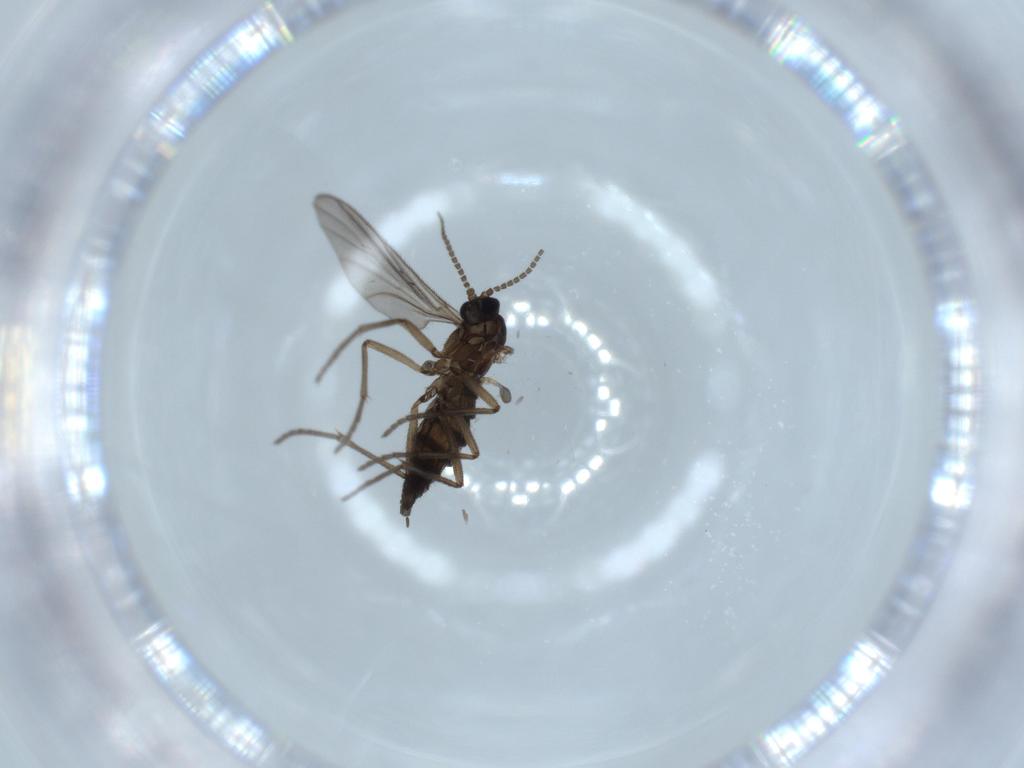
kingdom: Animalia
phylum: Arthropoda
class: Insecta
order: Diptera
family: Sciaridae
